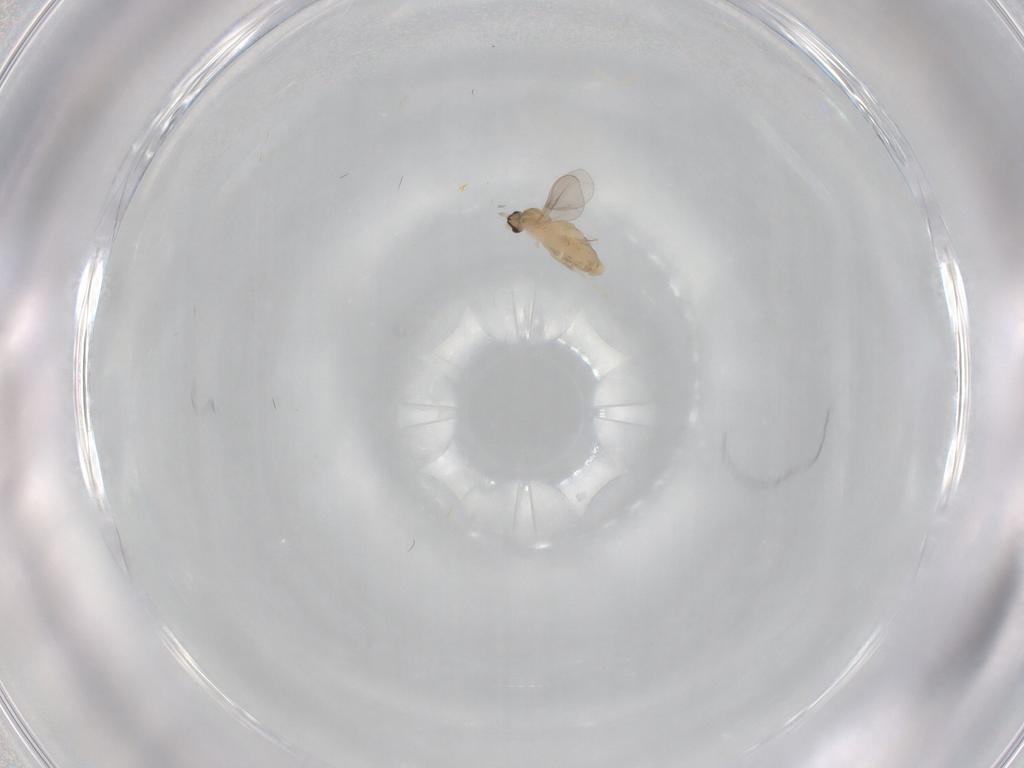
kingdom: Animalia
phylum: Arthropoda
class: Insecta
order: Diptera
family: Cecidomyiidae
